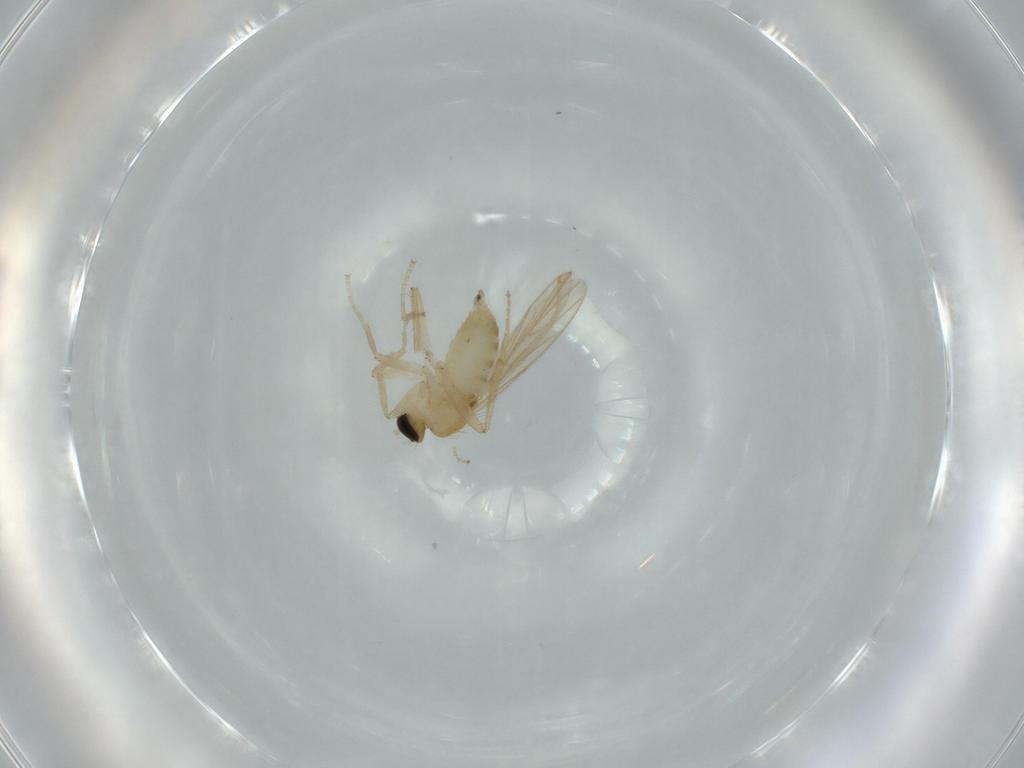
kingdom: Animalia
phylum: Arthropoda
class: Insecta
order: Diptera
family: Hybotidae
